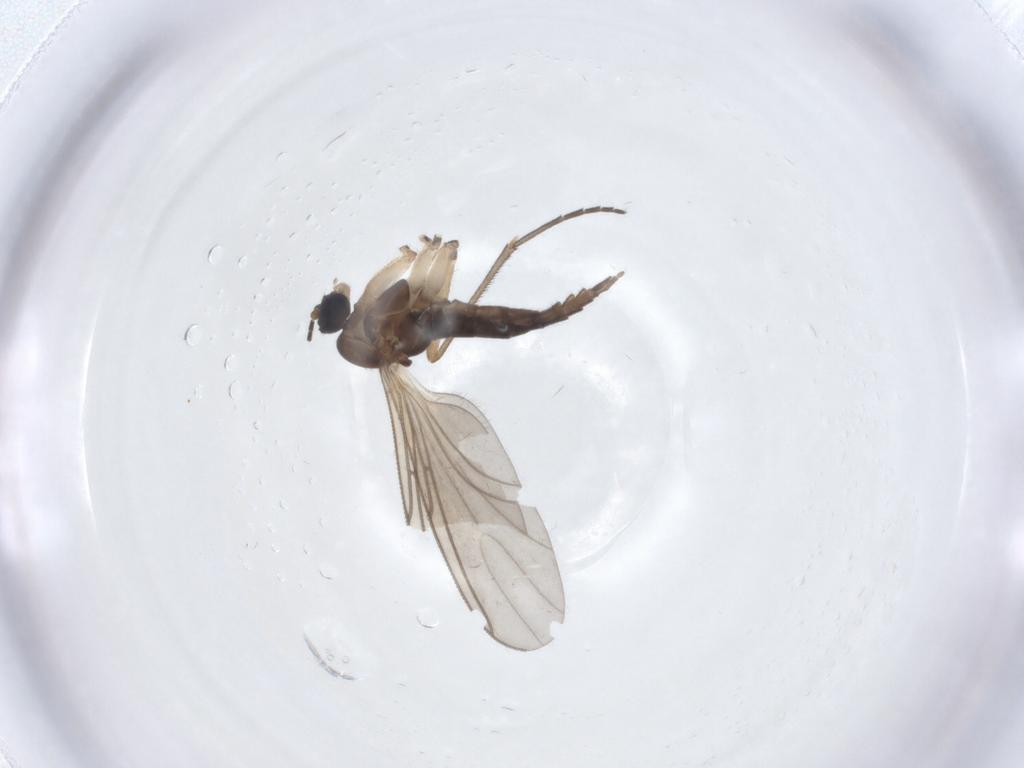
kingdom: Animalia
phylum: Arthropoda
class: Insecta
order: Diptera
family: Sciaridae
